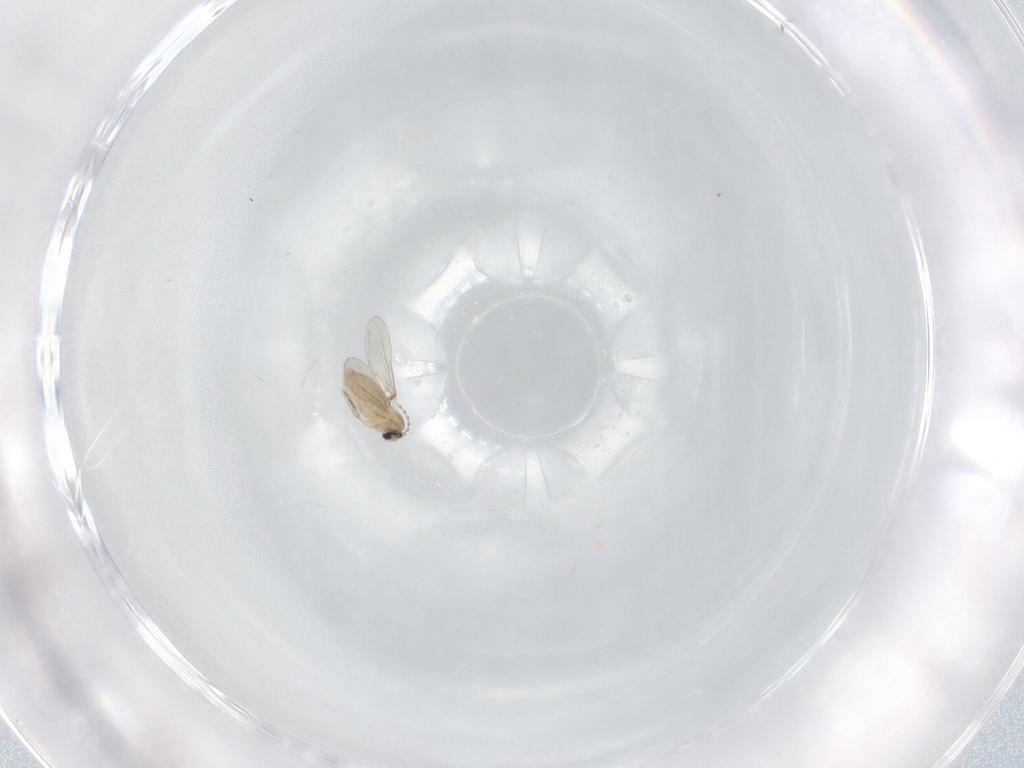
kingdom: Animalia
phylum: Arthropoda
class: Insecta
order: Diptera
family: Cecidomyiidae
